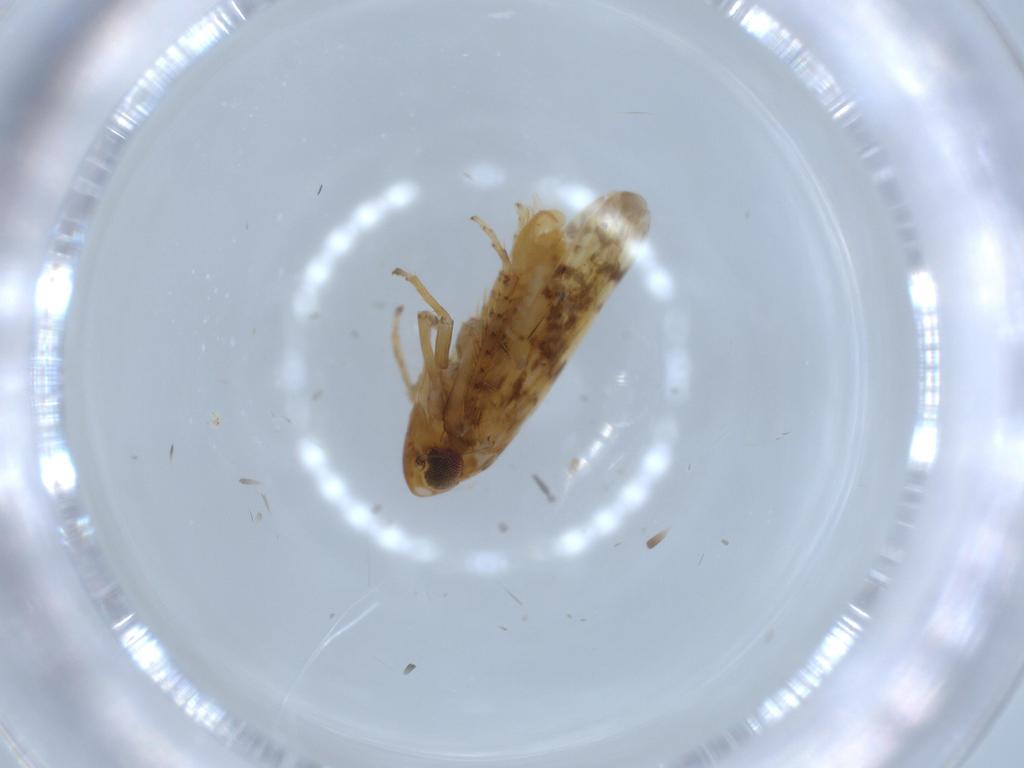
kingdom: Animalia
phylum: Arthropoda
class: Insecta
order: Hemiptera
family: Cicadellidae
